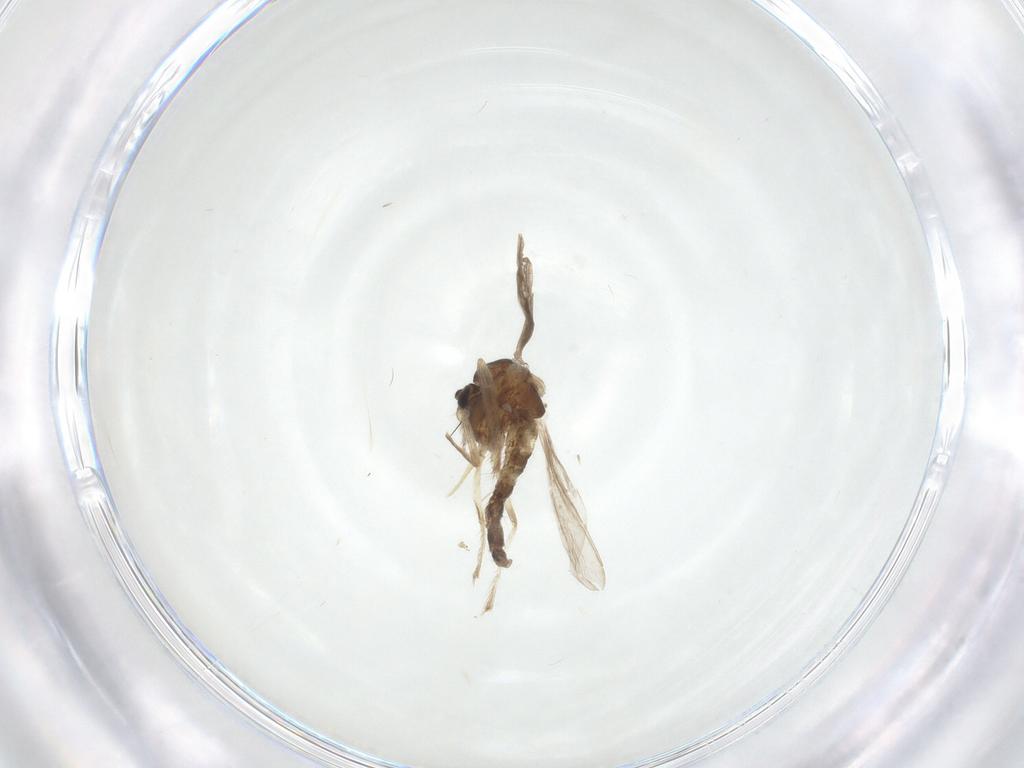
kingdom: Animalia
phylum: Arthropoda
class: Insecta
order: Diptera
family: Chironomidae
